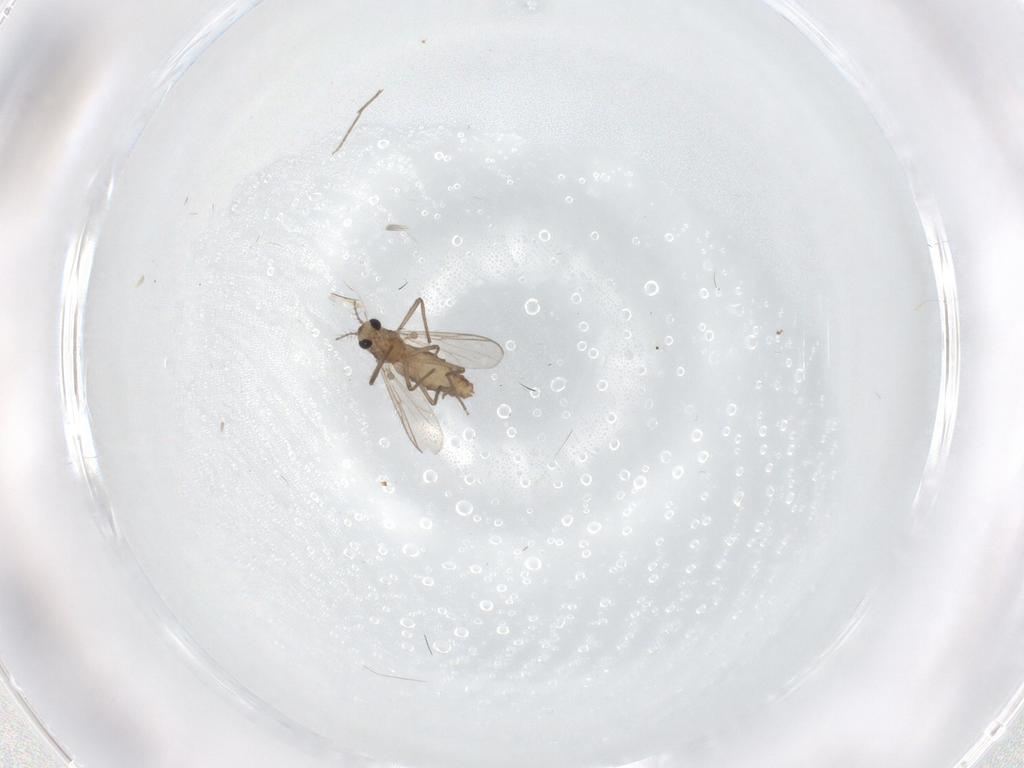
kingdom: Animalia
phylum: Arthropoda
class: Insecta
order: Diptera
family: Chironomidae
